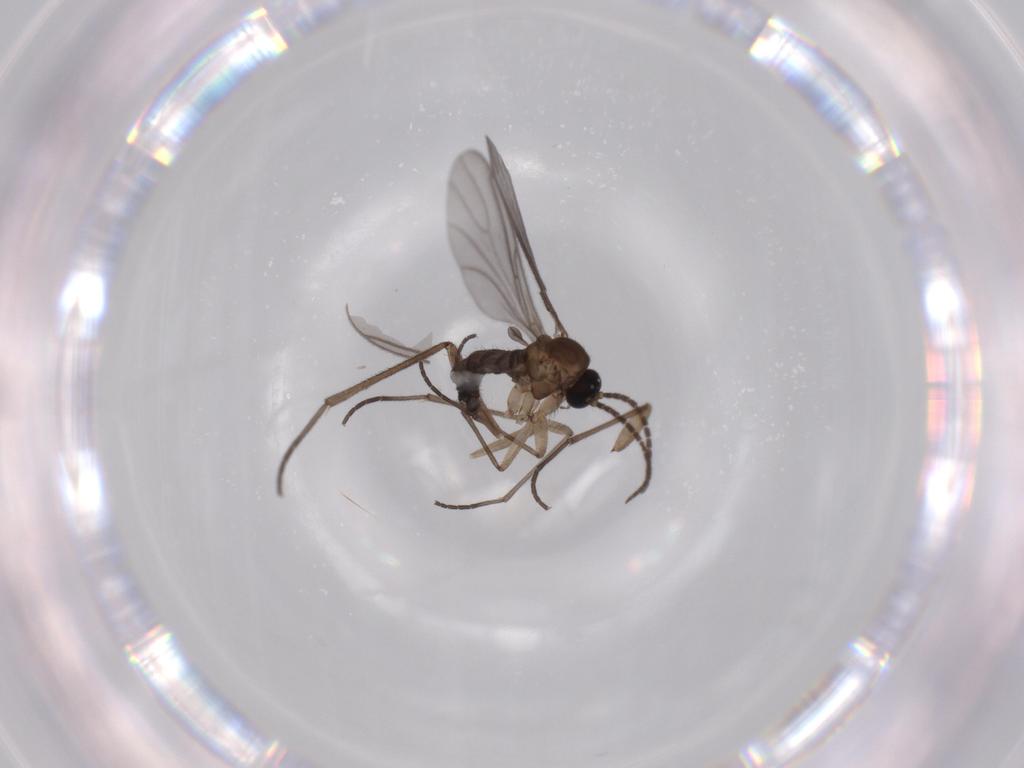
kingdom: Animalia
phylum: Arthropoda
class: Insecta
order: Diptera
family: Sciaridae
